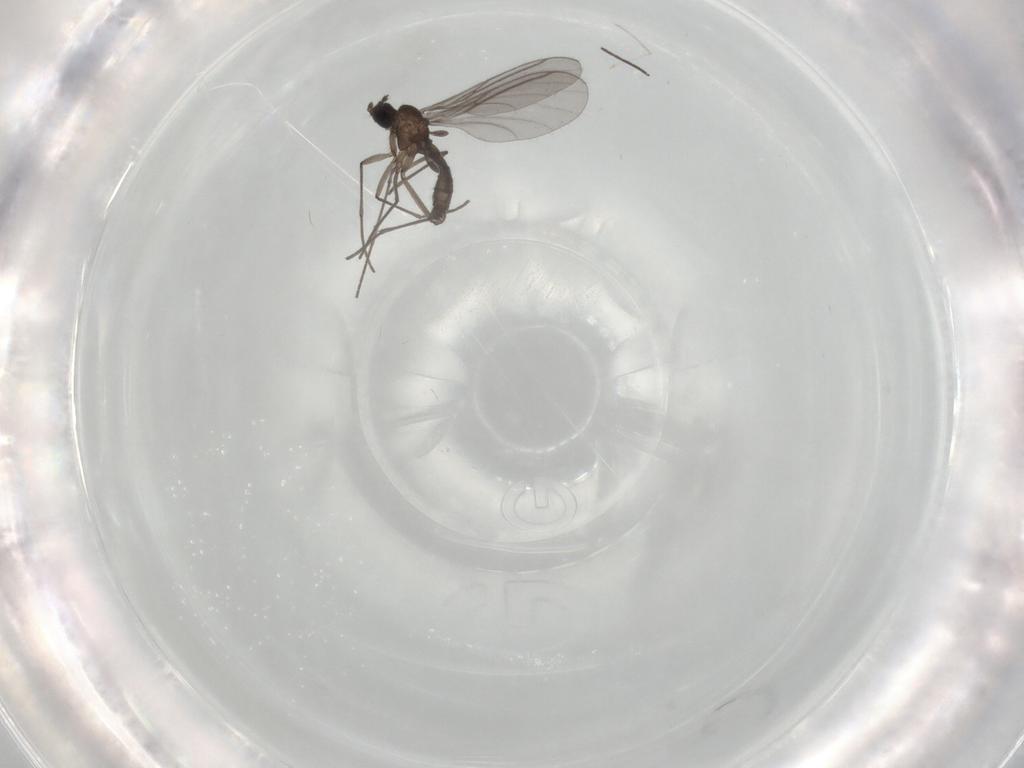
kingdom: Animalia
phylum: Arthropoda
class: Insecta
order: Diptera
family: Cecidomyiidae
